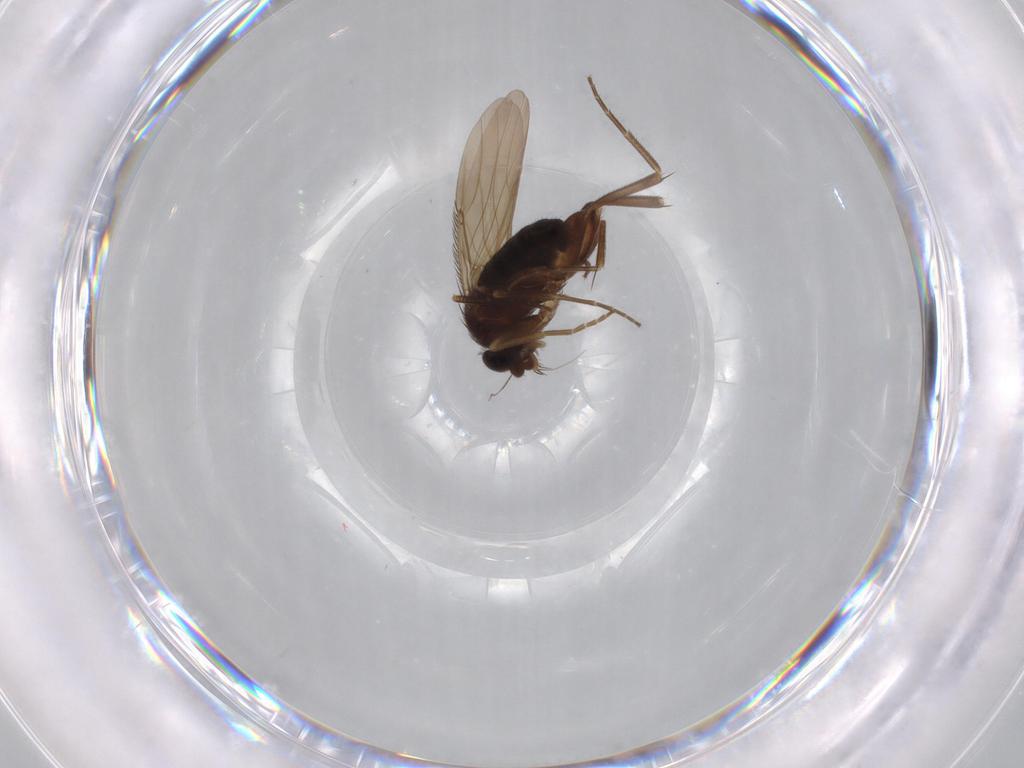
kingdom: Animalia
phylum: Arthropoda
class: Insecta
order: Diptera
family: Phoridae
